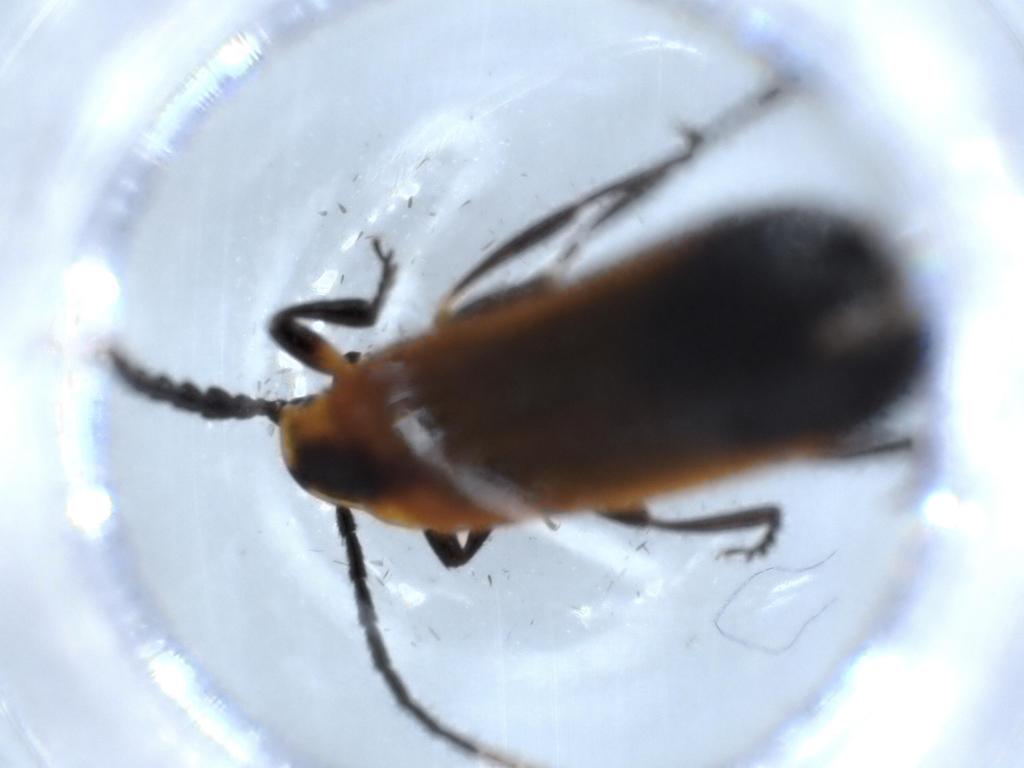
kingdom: Animalia
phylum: Arthropoda
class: Insecta
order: Coleoptera
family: Lycidae
